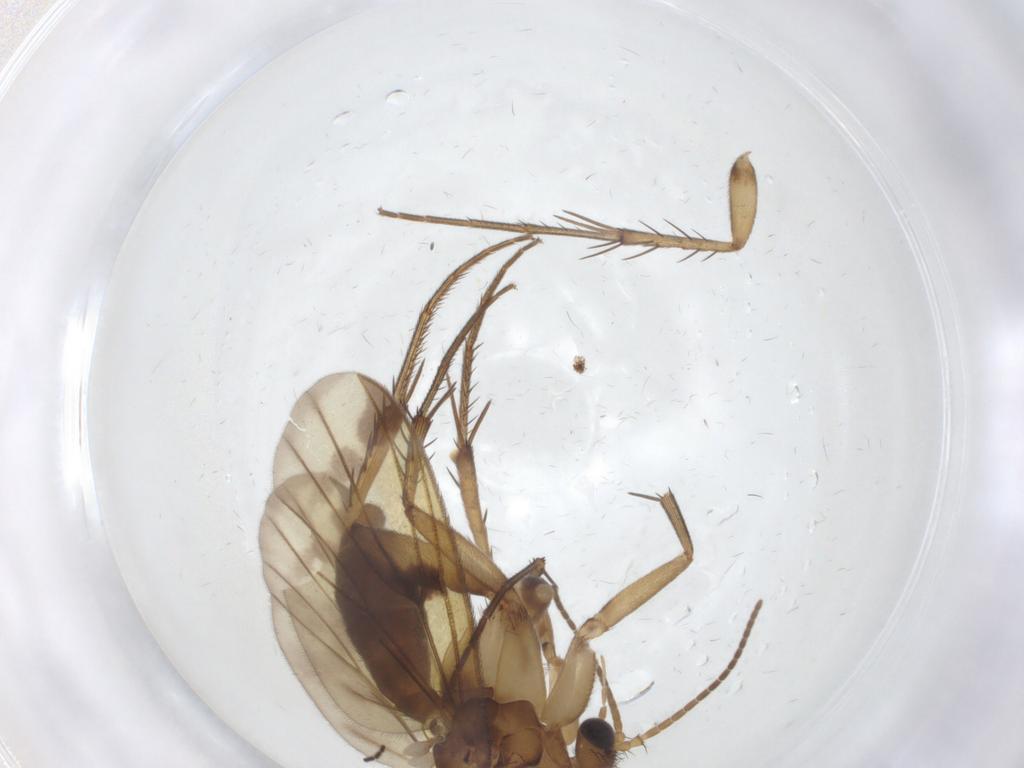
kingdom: Animalia
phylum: Arthropoda
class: Insecta
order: Diptera
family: Mycetophilidae
